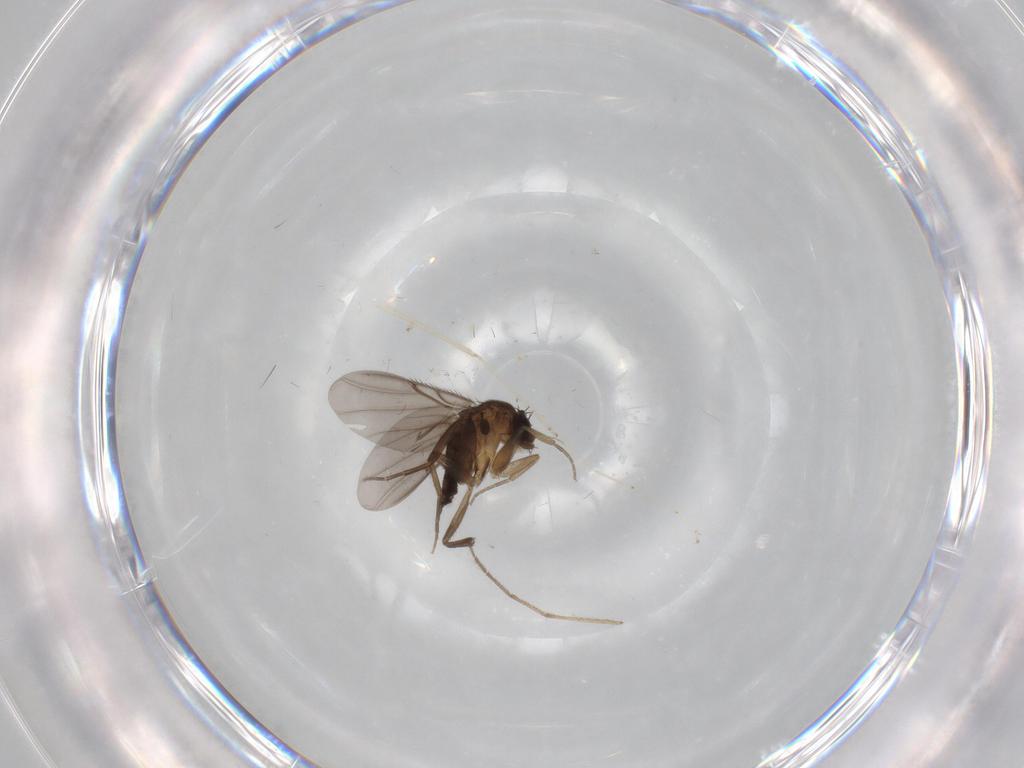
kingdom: Animalia
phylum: Arthropoda
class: Insecta
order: Diptera
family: Chironomidae
